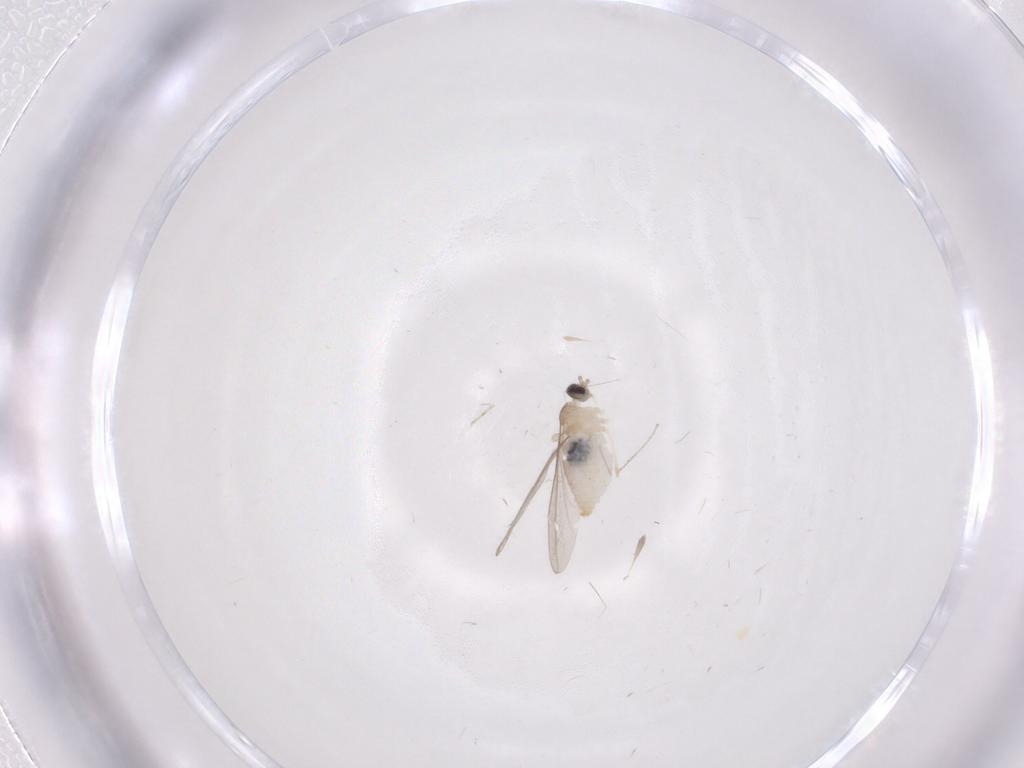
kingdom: Animalia
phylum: Arthropoda
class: Insecta
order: Diptera
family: Cecidomyiidae
